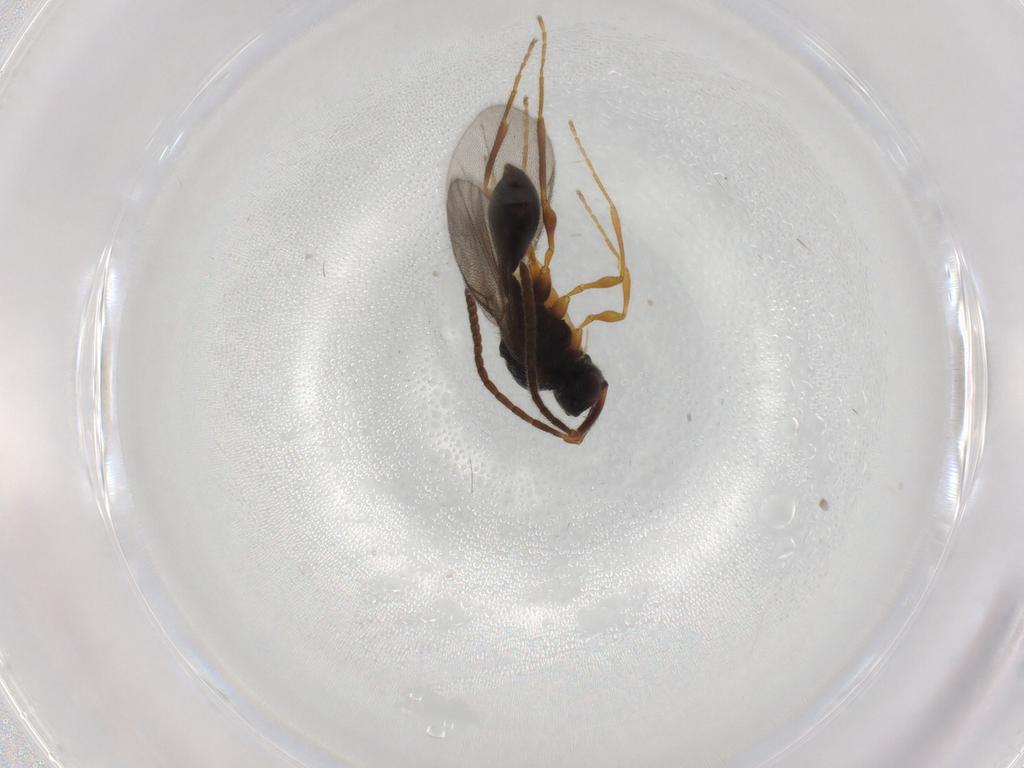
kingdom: Animalia
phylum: Arthropoda
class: Insecta
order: Hymenoptera
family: Diapriidae
